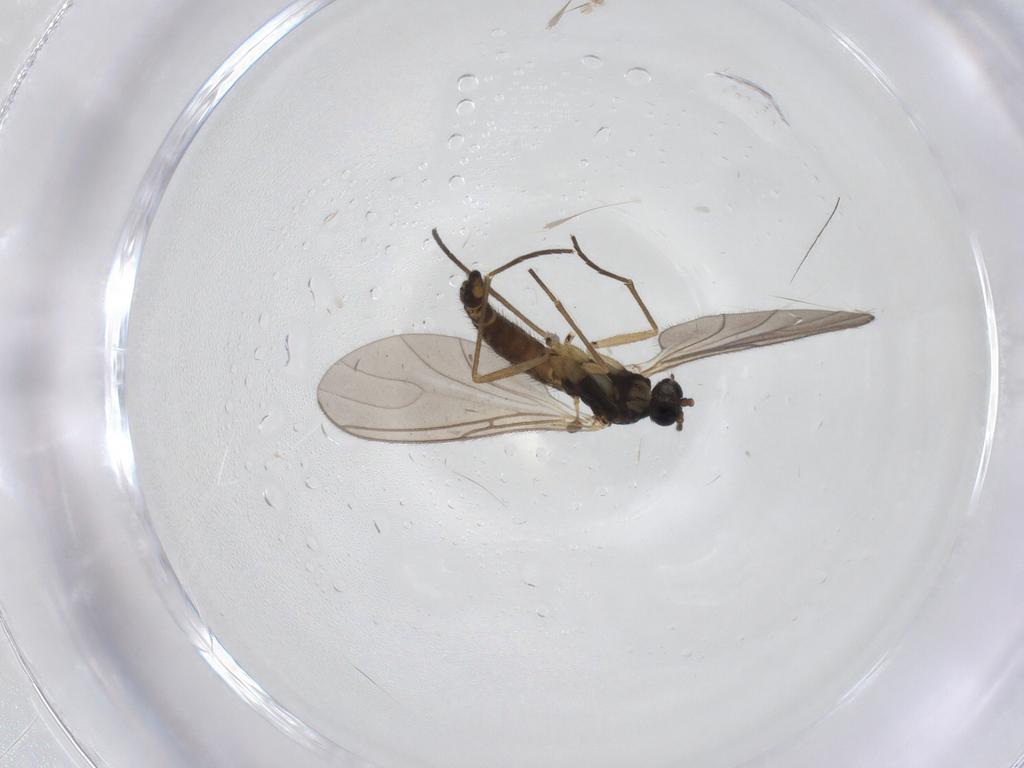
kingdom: Animalia
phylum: Arthropoda
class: Insecta
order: Diptera
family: Sciaridae
